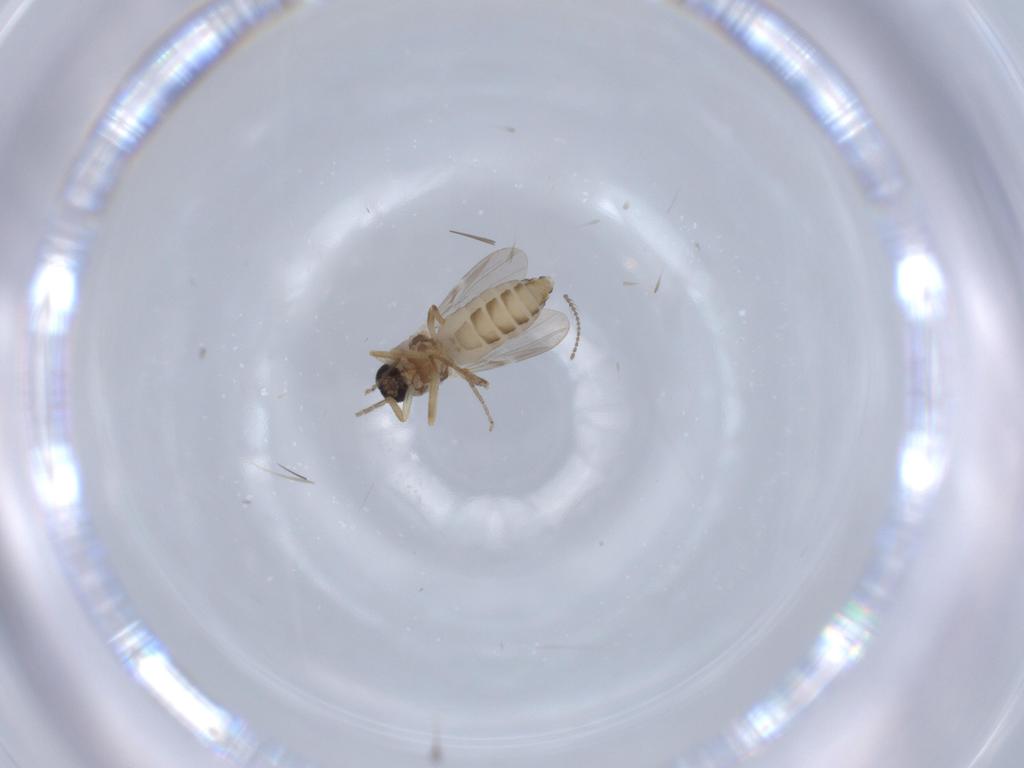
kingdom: Animalia
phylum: Arthropoda
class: Insecta
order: Diptera
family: Ceratopogonidae
